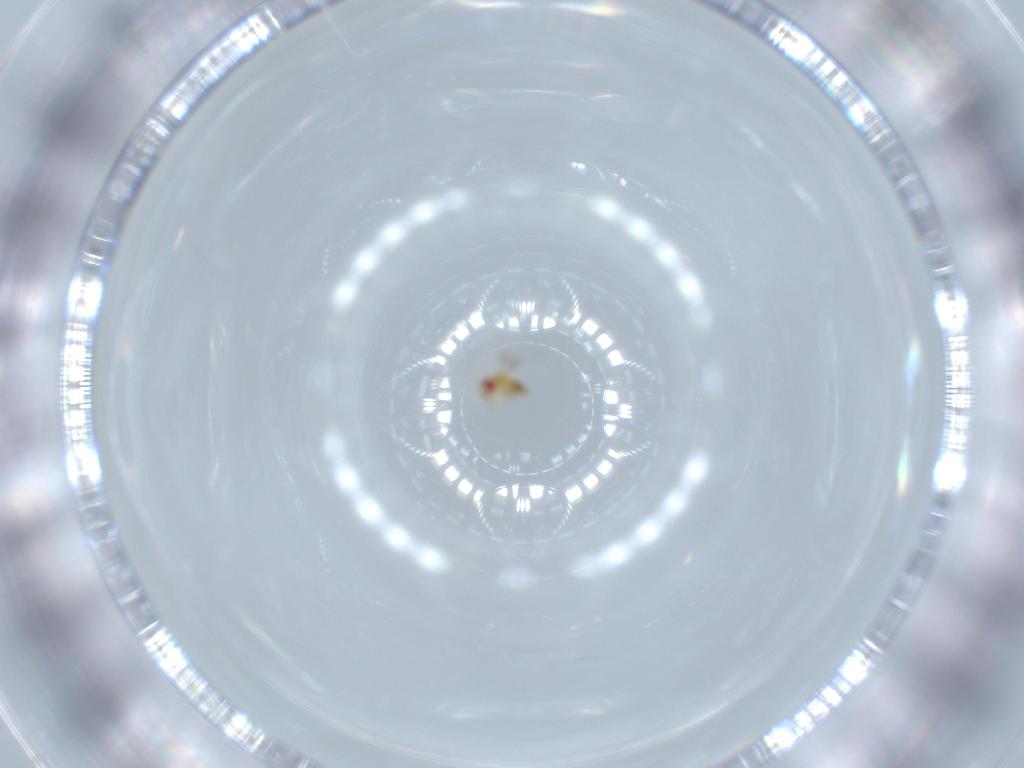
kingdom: Animalia
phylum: Arthropoda
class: Insecta
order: Hymenoptera
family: Trichogrammatidae
